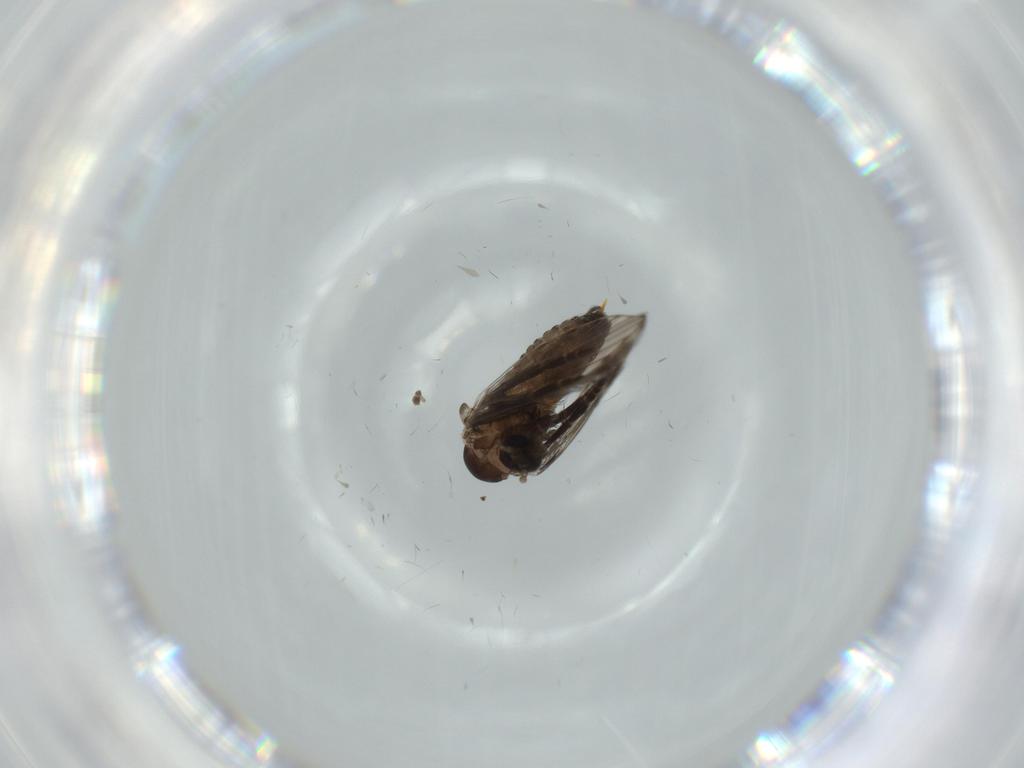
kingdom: Animalia
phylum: Arthropoda
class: Insecta
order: Diptera
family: Psychodidae
